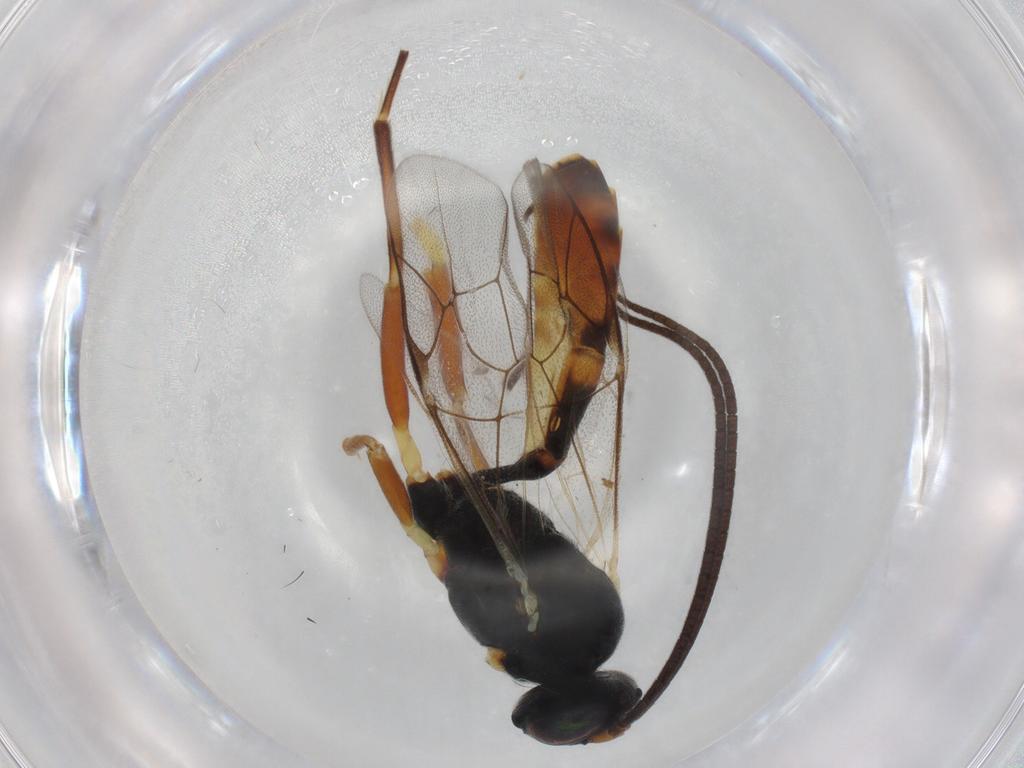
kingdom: Animalia
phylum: Arthropoda
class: Insecta
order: Hymenoptera
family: Ichneumonidae
